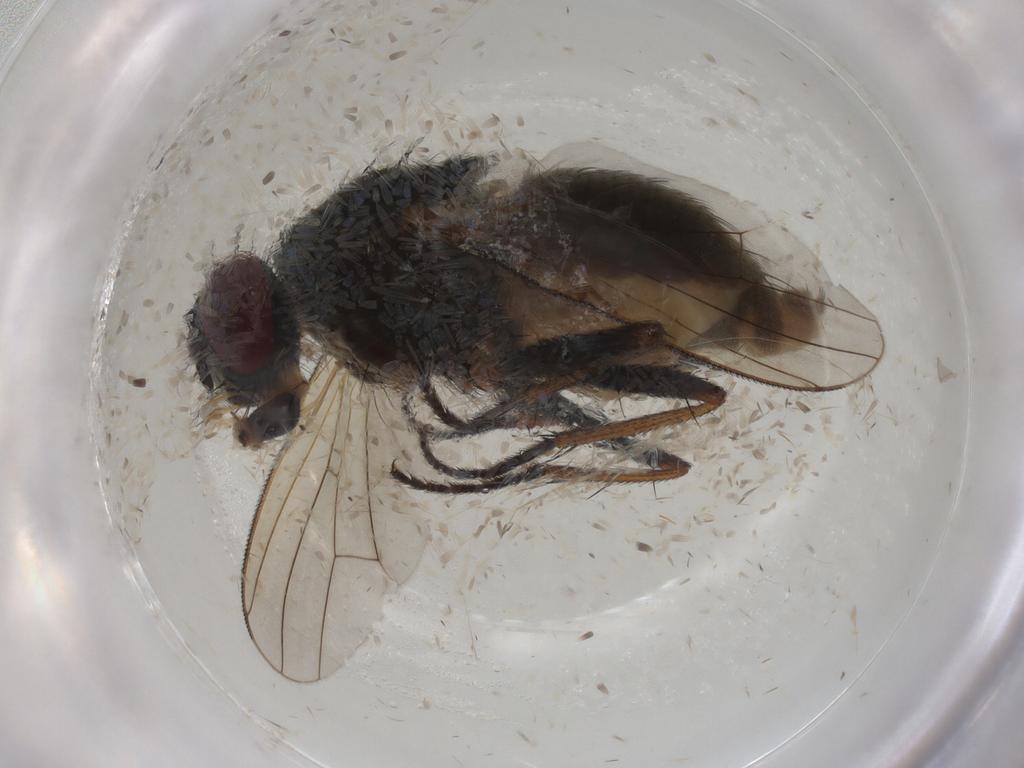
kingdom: Animalia
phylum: Arthropoda
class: Insecta
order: Diptera
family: Muscidae
